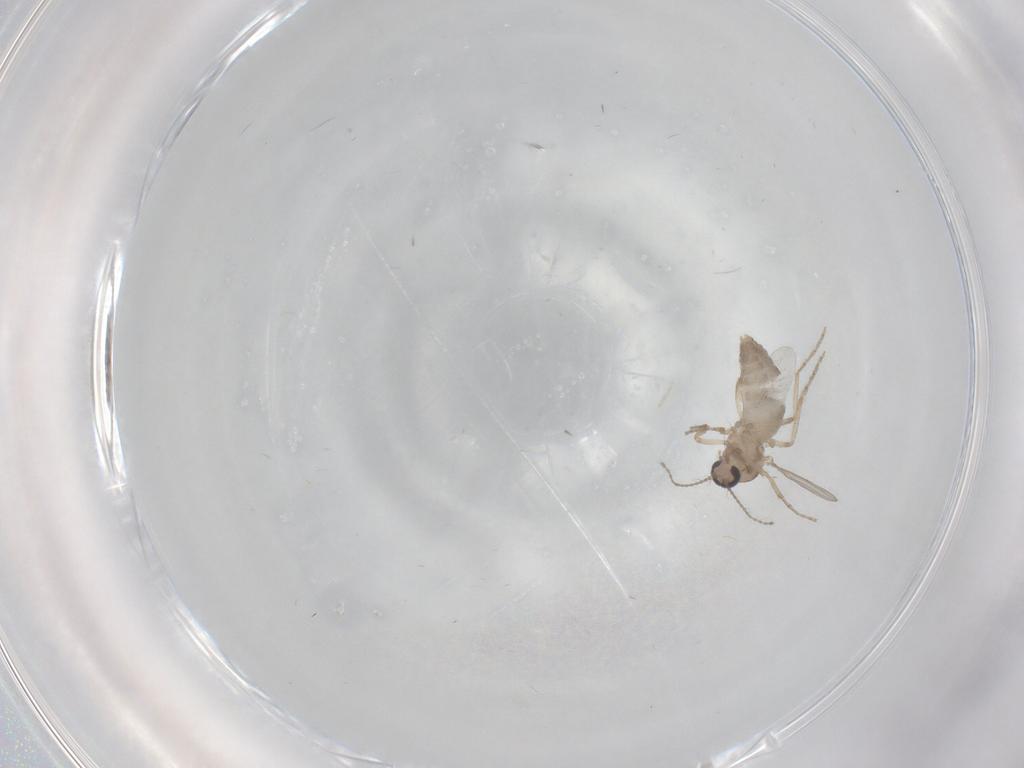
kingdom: Animalia
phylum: Arthropoda
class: Insecta
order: Diptera
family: Ceratopogonidae
